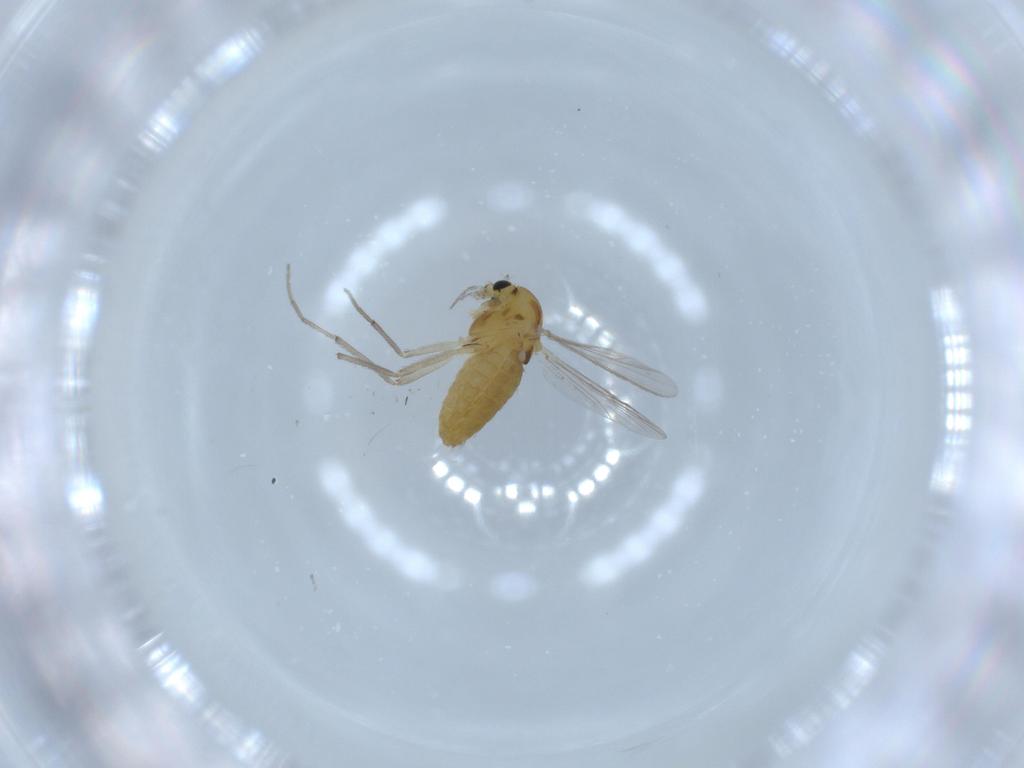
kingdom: Animalia
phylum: Arthropoda
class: Insecta
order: Diptera
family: Chironomidae
